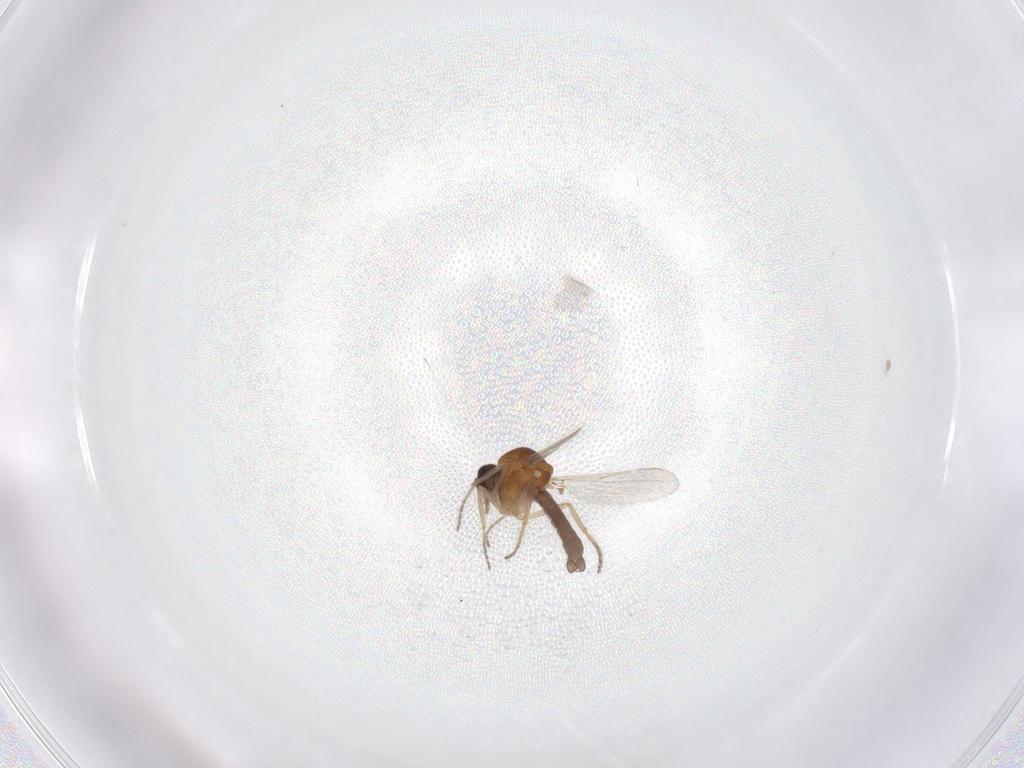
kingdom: Animalia
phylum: Arthropoda
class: Insecta
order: Diptera
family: Ceratopogonidae
